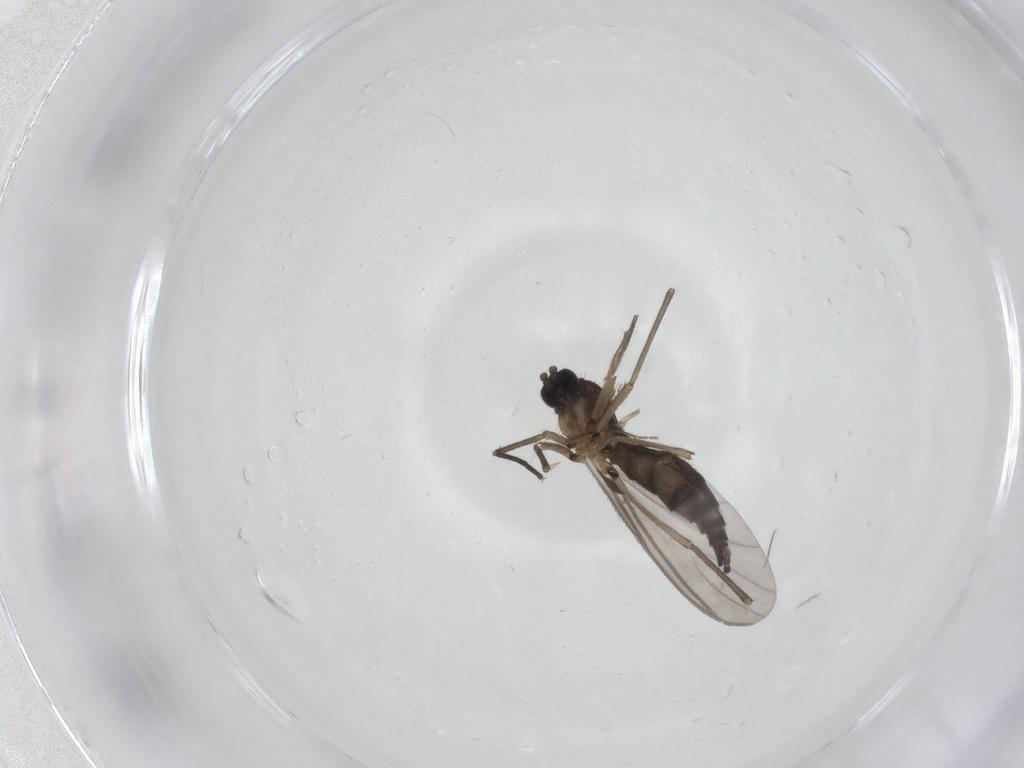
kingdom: Animalia
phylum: Arthropoda
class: Insecta
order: Diptera
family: Sciaridae
